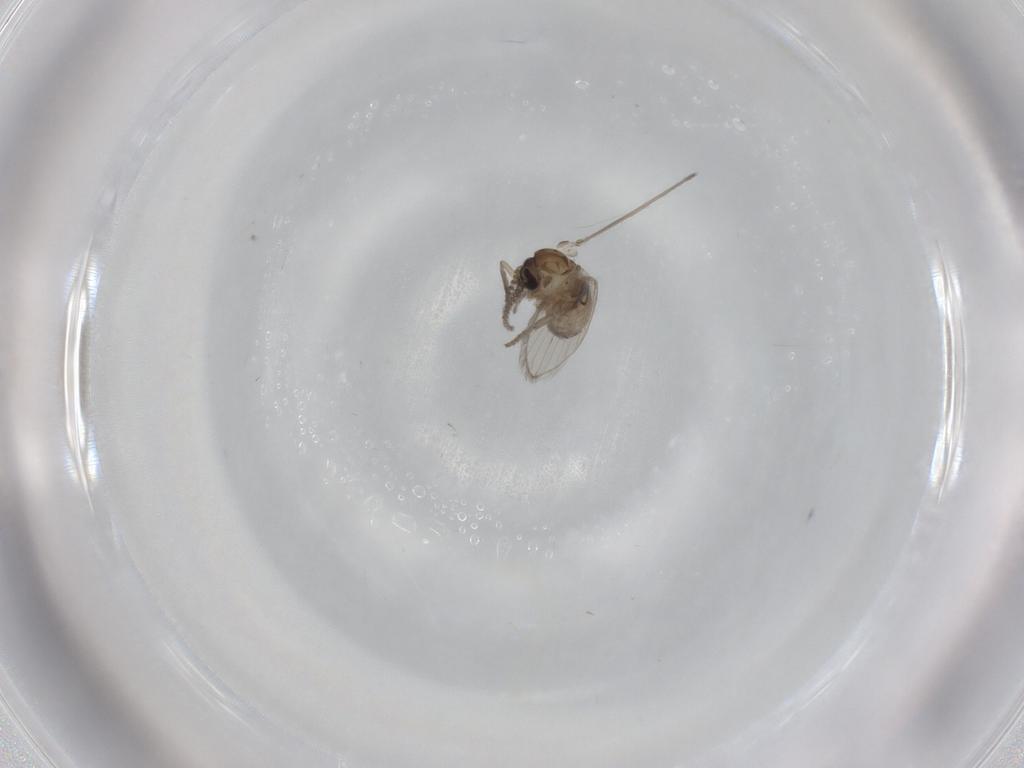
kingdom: Animalia
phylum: Arthropoda
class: Insecta
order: Diptera
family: Psychodidae
